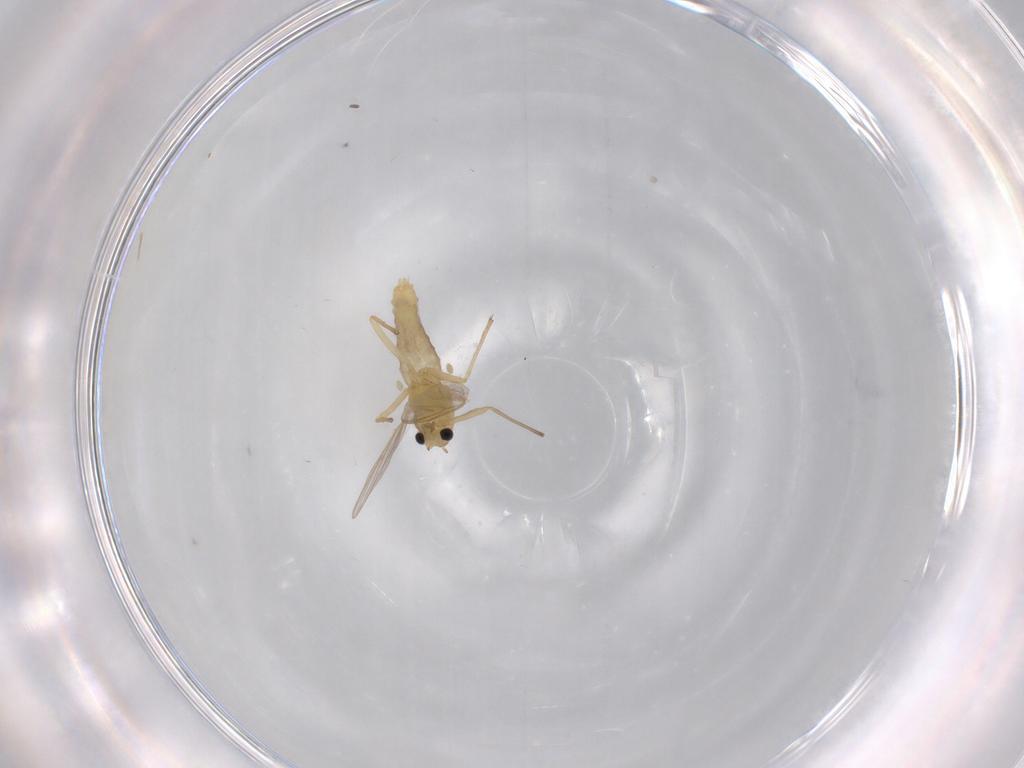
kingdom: Animalia
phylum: Arthropoda
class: Insecta
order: Diptera
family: Chironomidae
